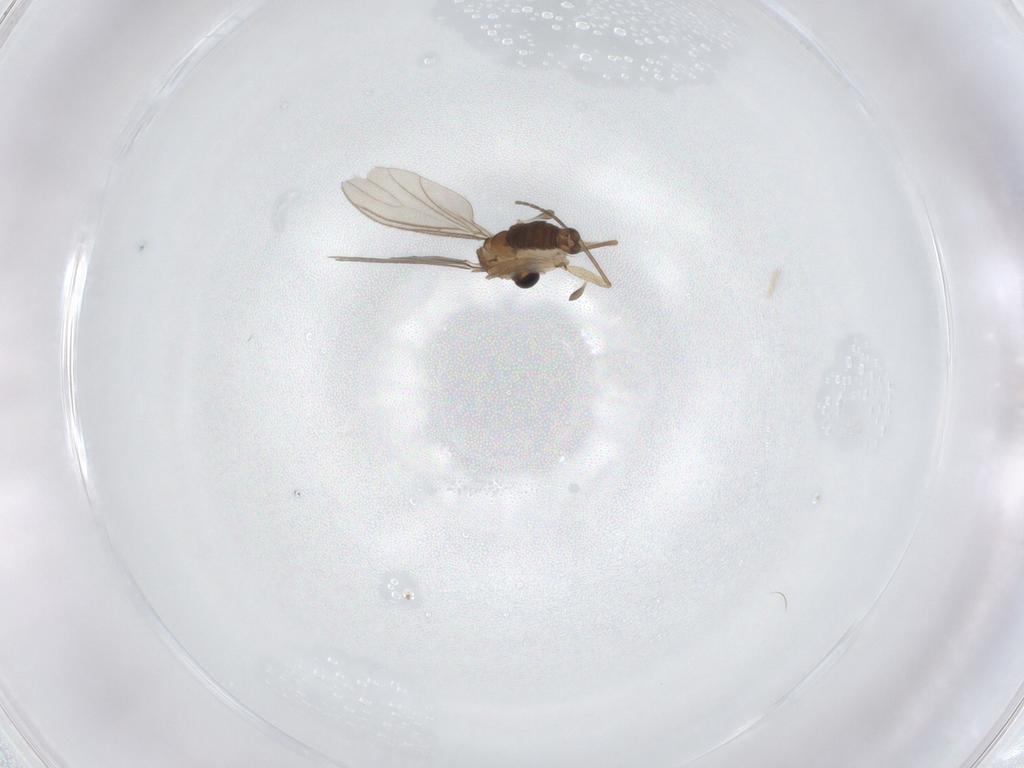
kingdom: Animalia
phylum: Arthropoda
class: Insecta
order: Diptera
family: Sciaridae
